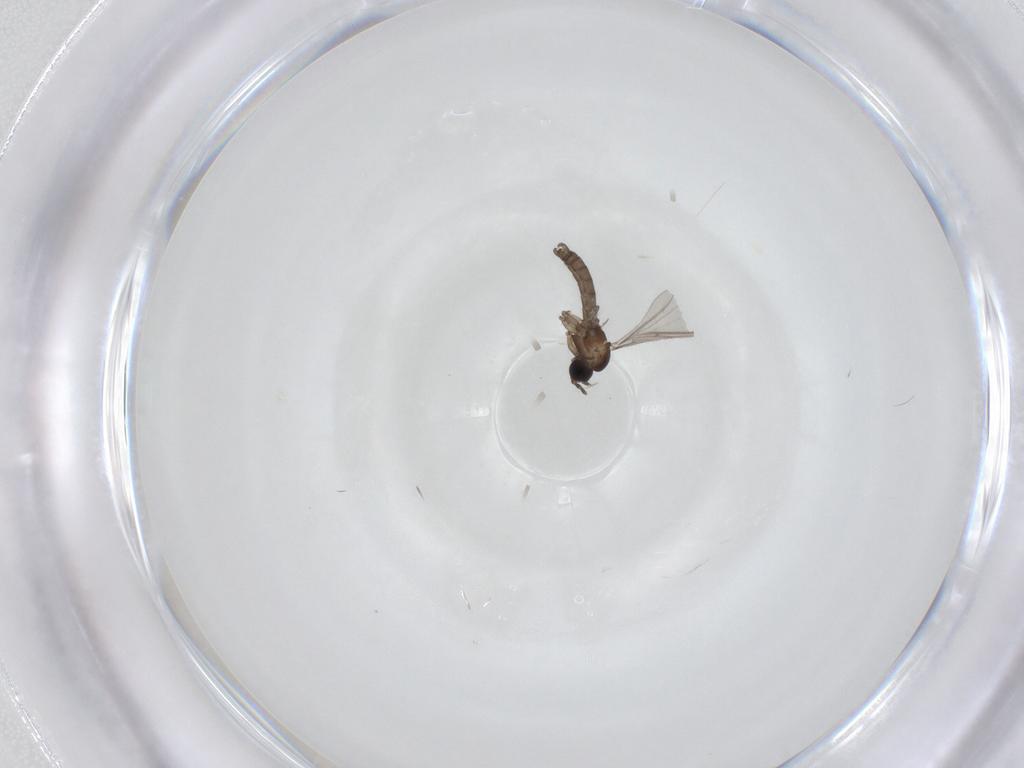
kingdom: Animalia
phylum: Arthropoda
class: Insecta
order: Diptera
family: Sciaridae
